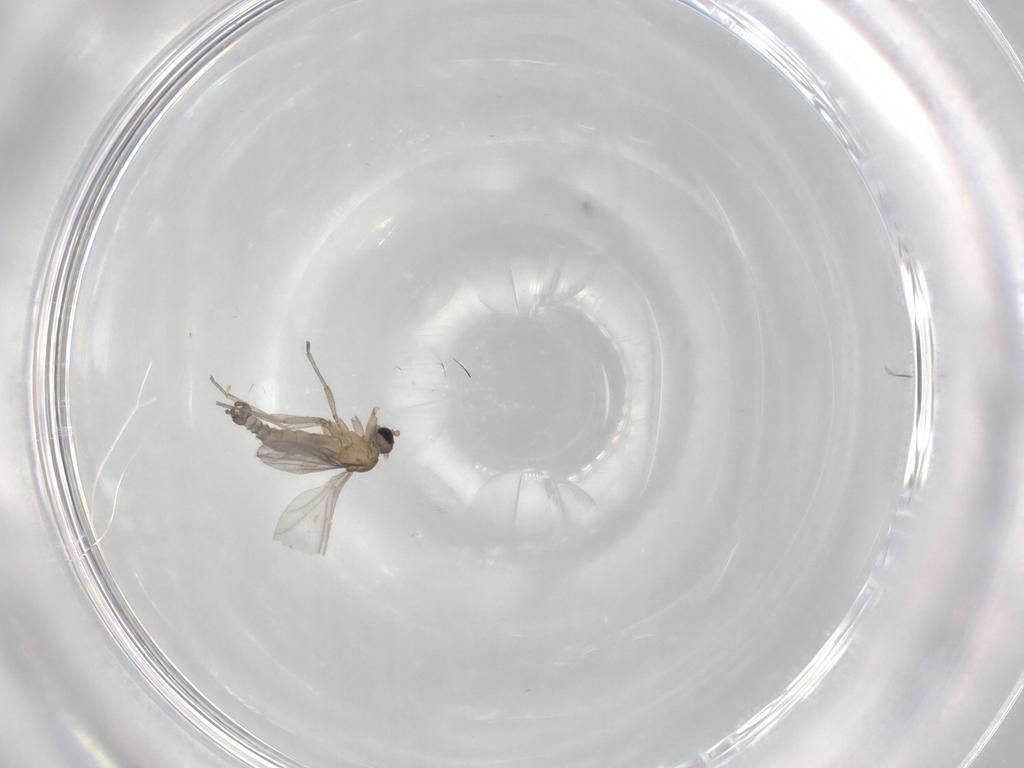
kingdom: Animalia
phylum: Arthropoda
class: Insecta
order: Diptera
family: Sciaridae
